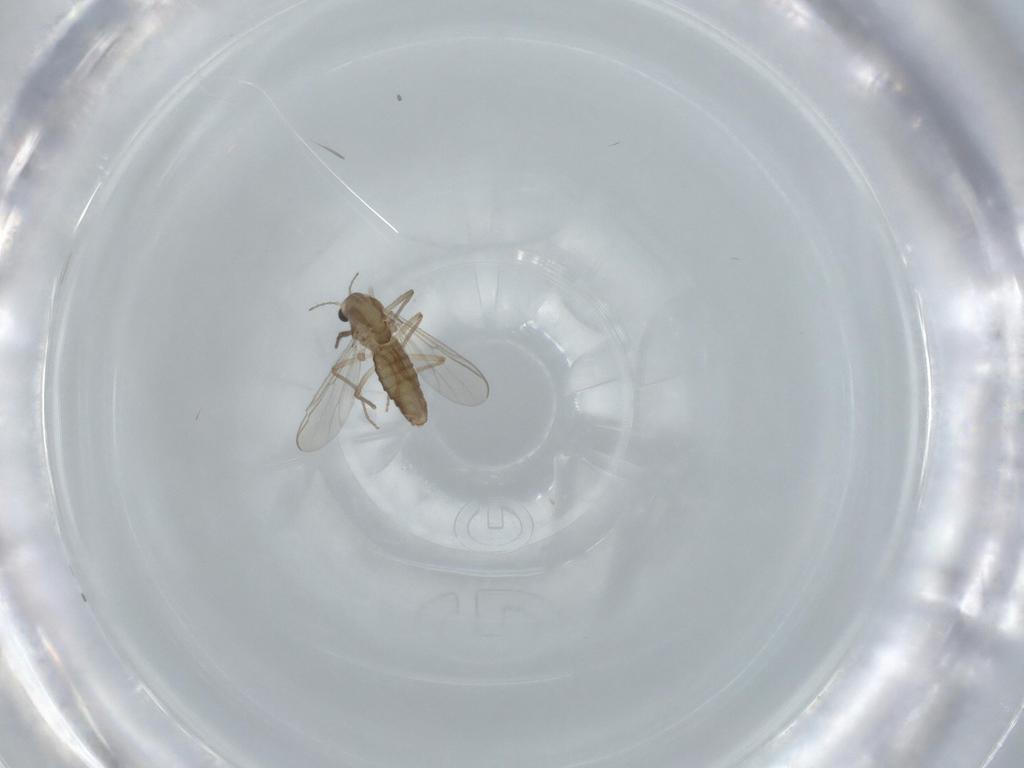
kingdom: Animalia
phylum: Arthropoda
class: Insecta
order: Diptera
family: Chironomidae
